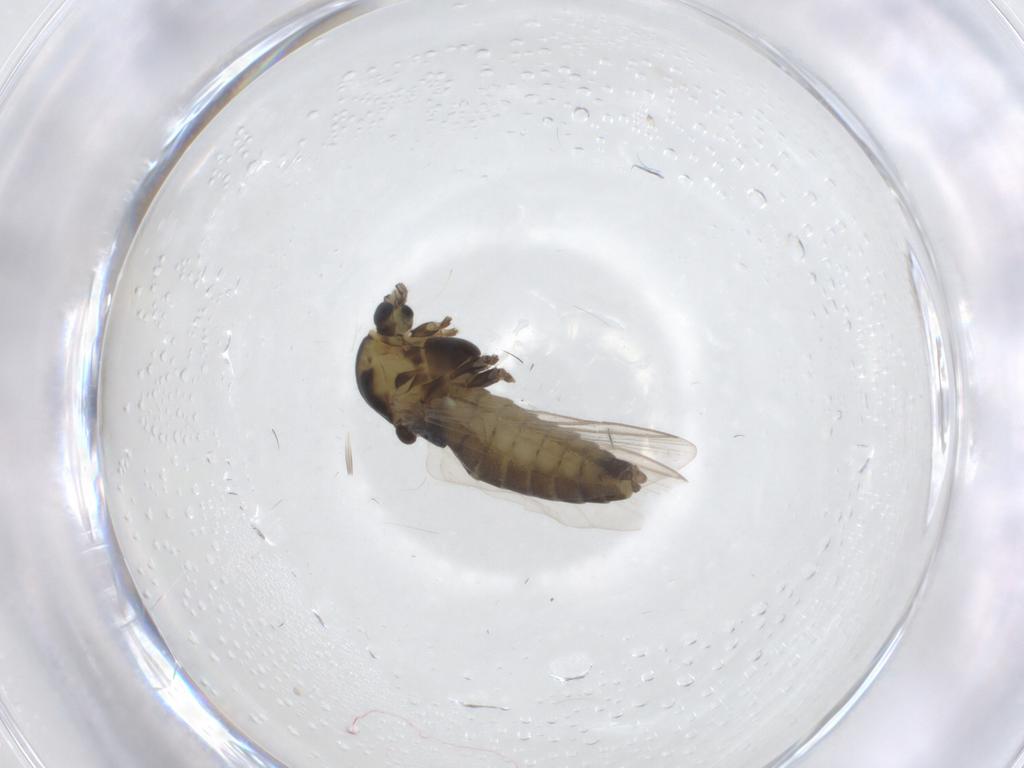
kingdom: Animalia
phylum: Arthropoda
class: Insecta
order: Diptera
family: Chironomidae
